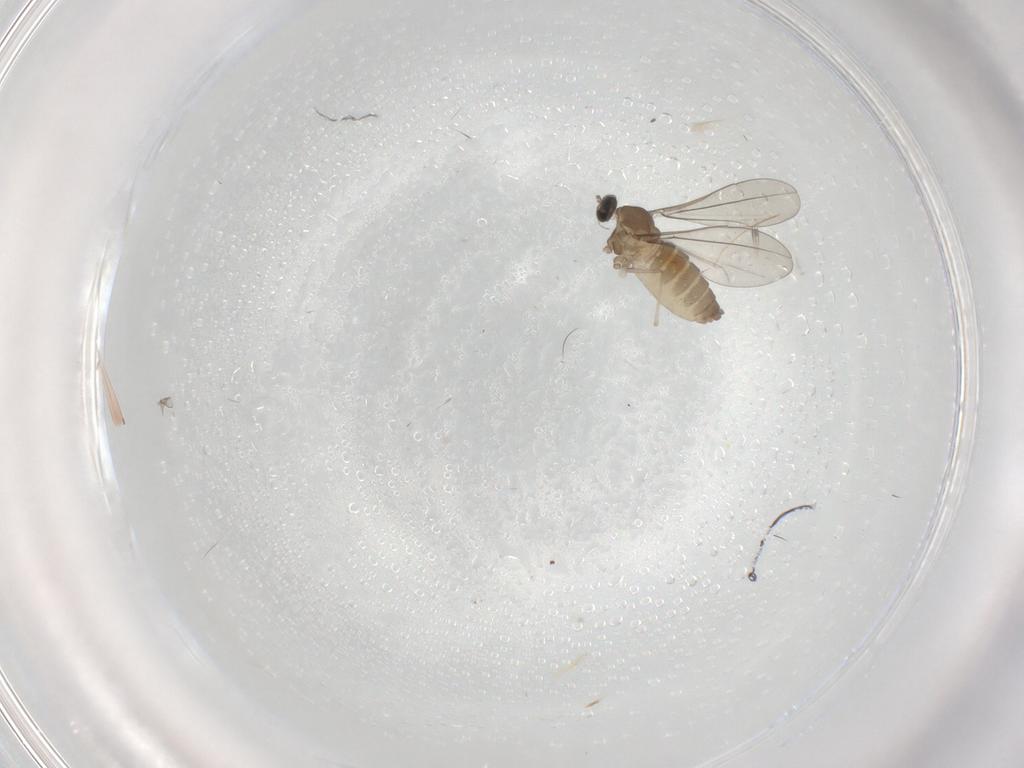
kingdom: Animalia
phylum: Arthropoda
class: Insecta
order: Diptera
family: Cecidomyiidae
